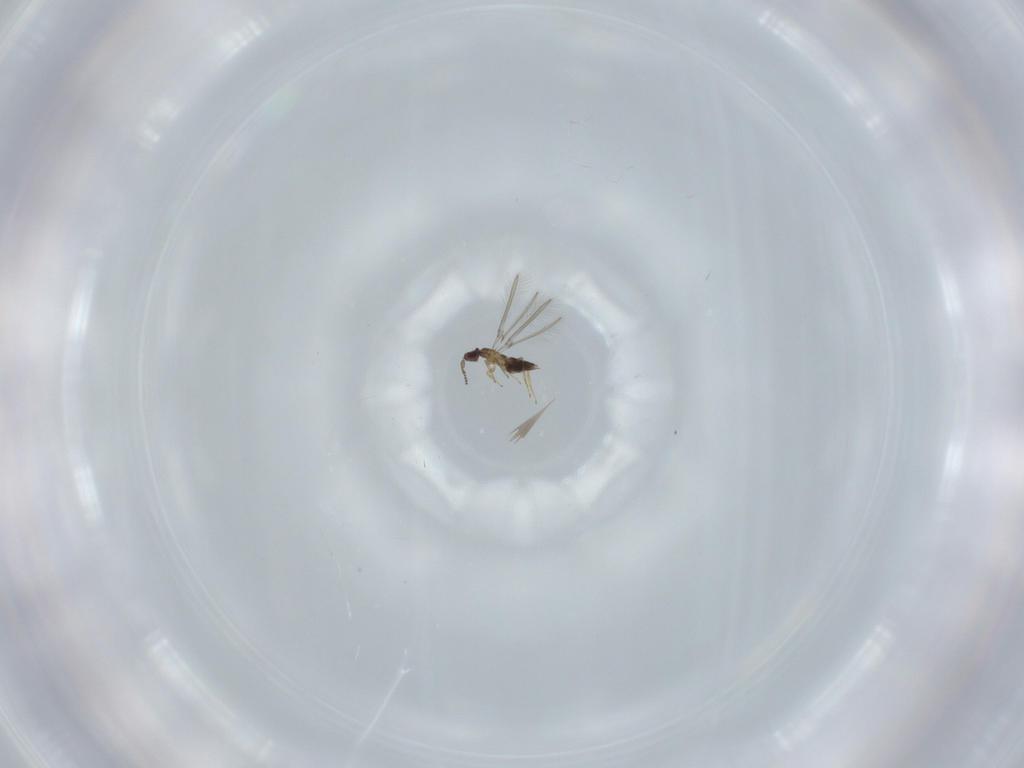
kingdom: Animalia
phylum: Arthropoda
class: Insecta
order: Hymenoptera
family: Mymaridae
